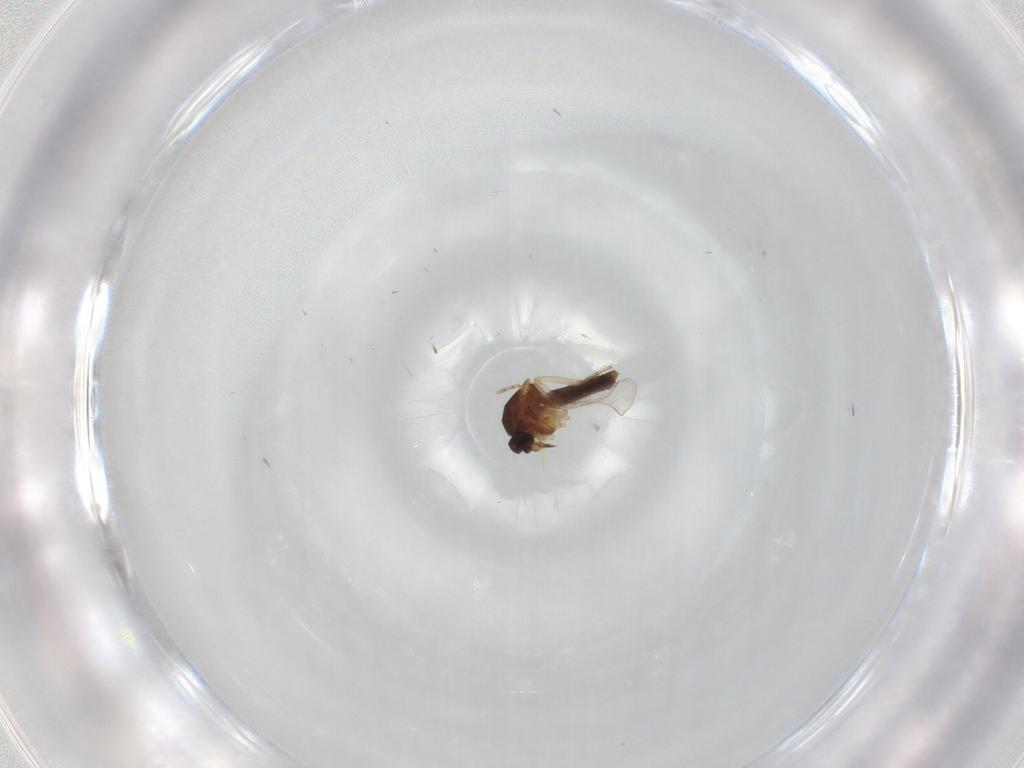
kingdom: Animalia
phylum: Arthropoda
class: Insecta
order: Diptera
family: Ceratopogonidae
